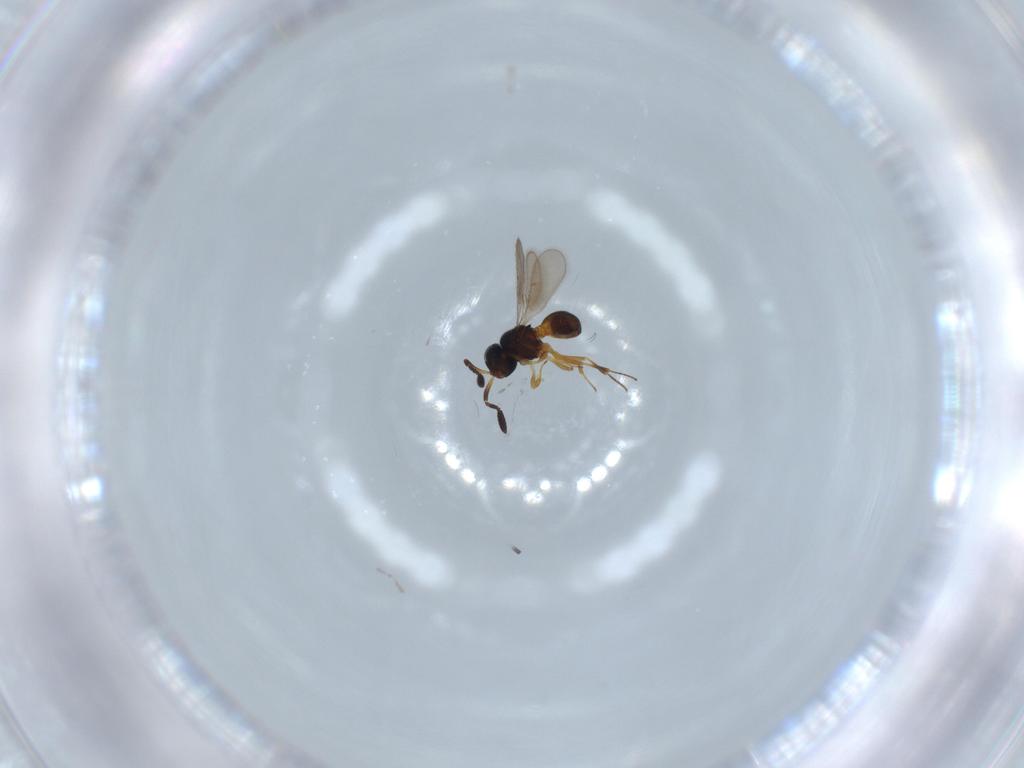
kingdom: Animalia
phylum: Arthropoda
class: Insecta
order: Hymenoptera
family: Scelionidae
